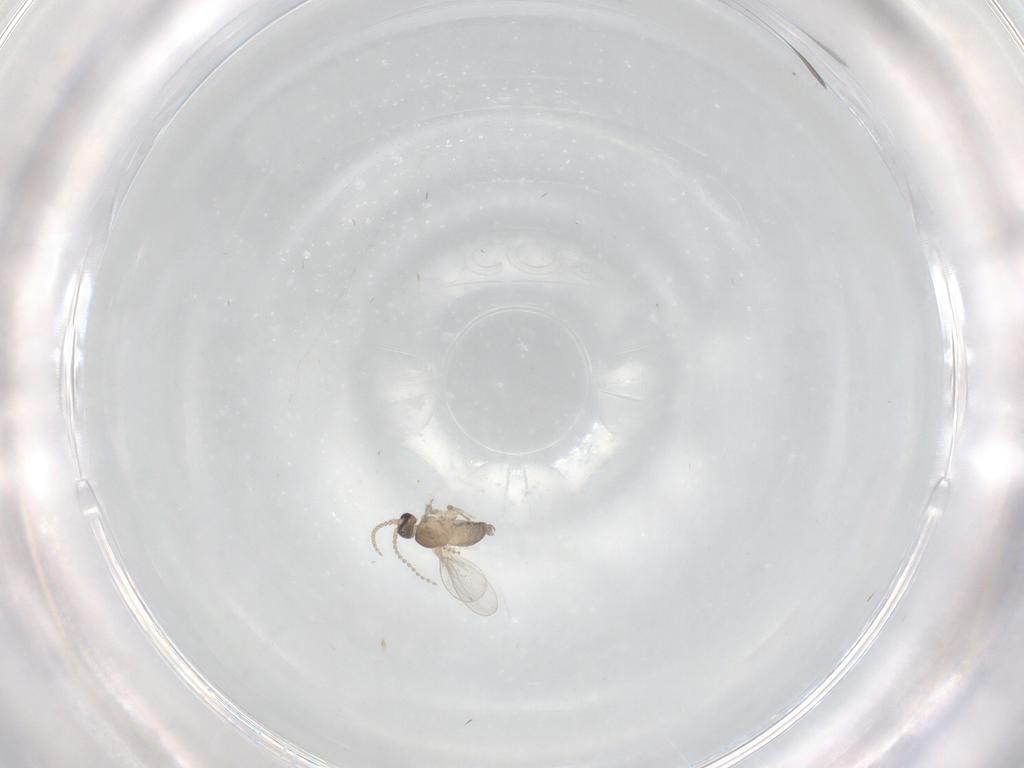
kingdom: Animalia
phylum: Arthropoda
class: Insecta
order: Diptera
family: Cecidomyiidae
